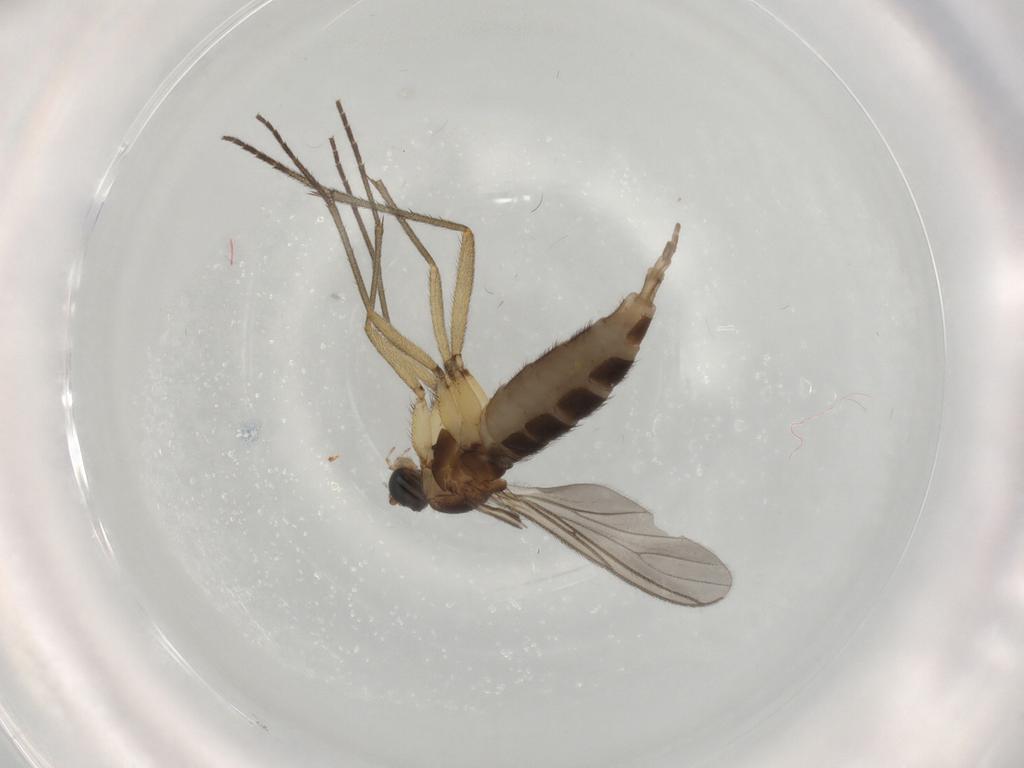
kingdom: Animalia
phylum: Arthropoda
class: Insecta
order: Diptera
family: Sciaridae
